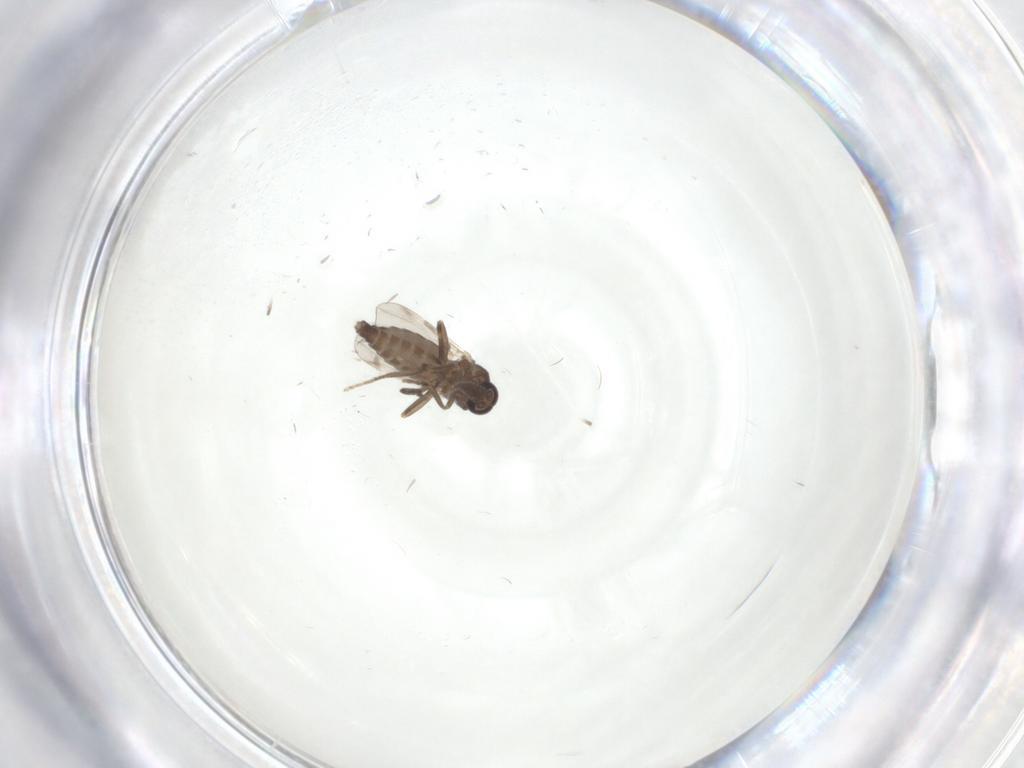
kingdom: Animalia
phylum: Arthropoda
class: Insecta
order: Diptera
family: Ceratopogonidae
